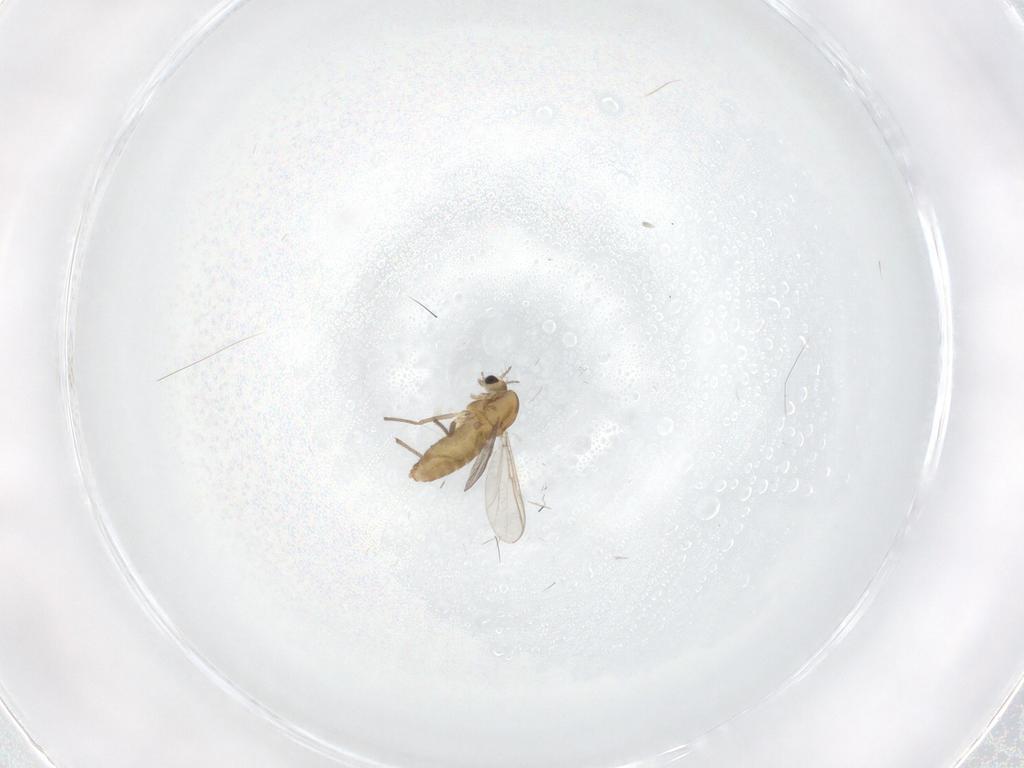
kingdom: Animalia
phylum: Arthropoda
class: Insecta
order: Diptera
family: Chironomidae
